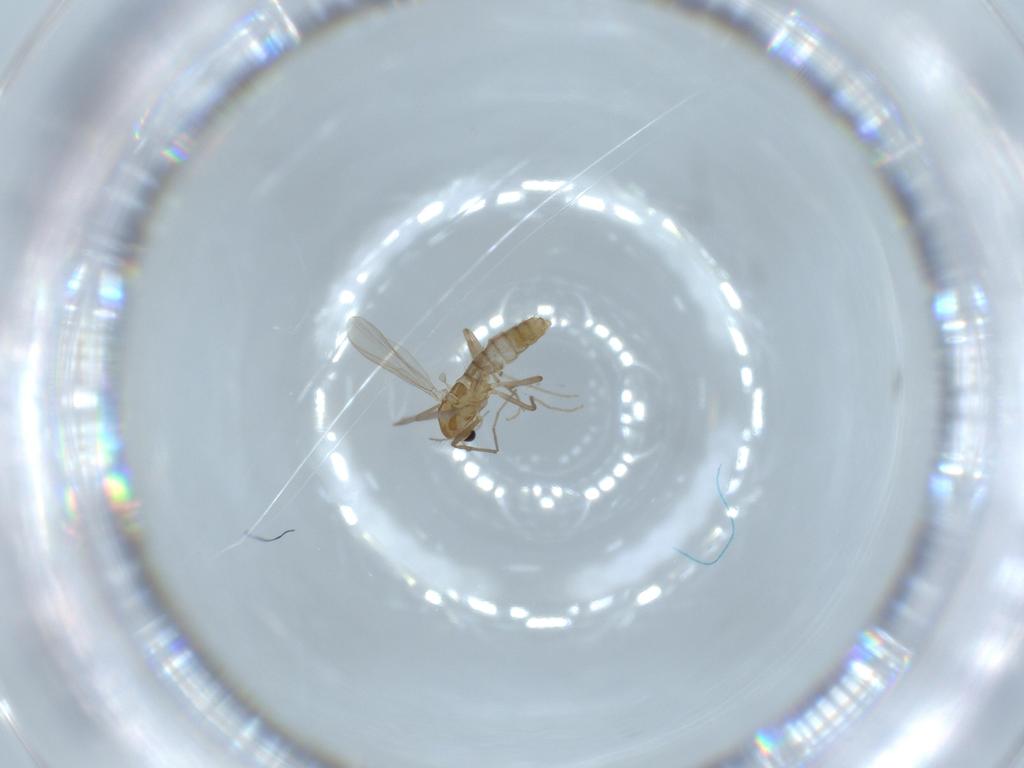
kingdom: Animalia
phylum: Arthropoda
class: Insecta
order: Diptera
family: Chironomidae
